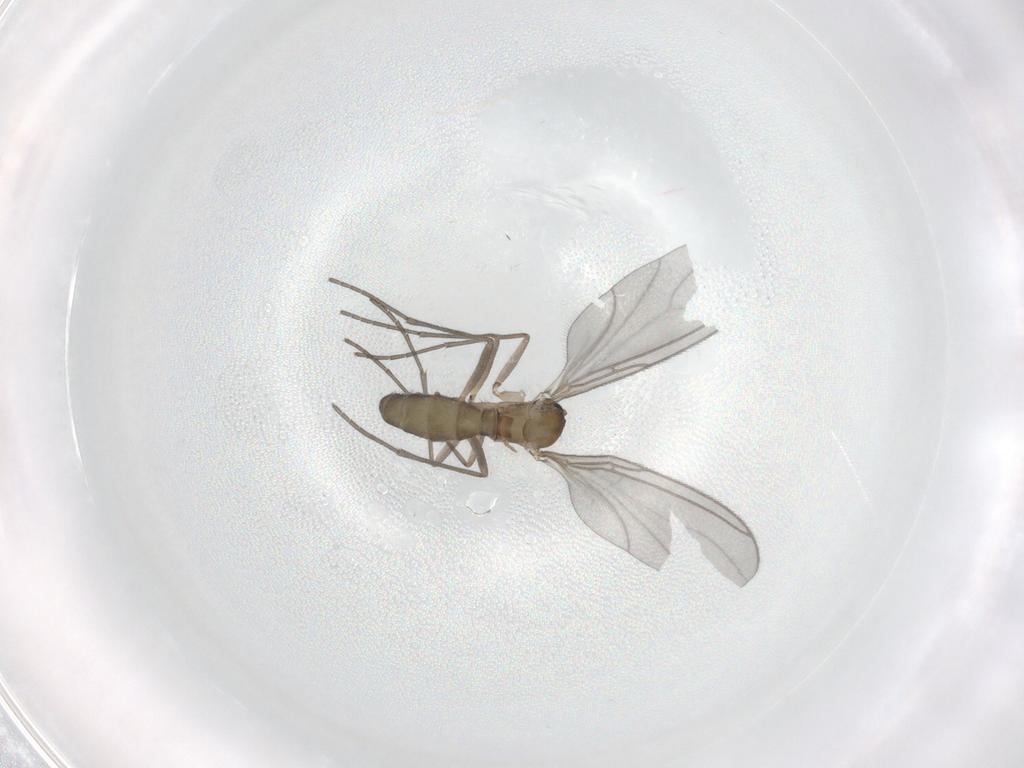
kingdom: Animalia
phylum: Arthropoda
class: Insecta
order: Diptera
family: Sciaridae
